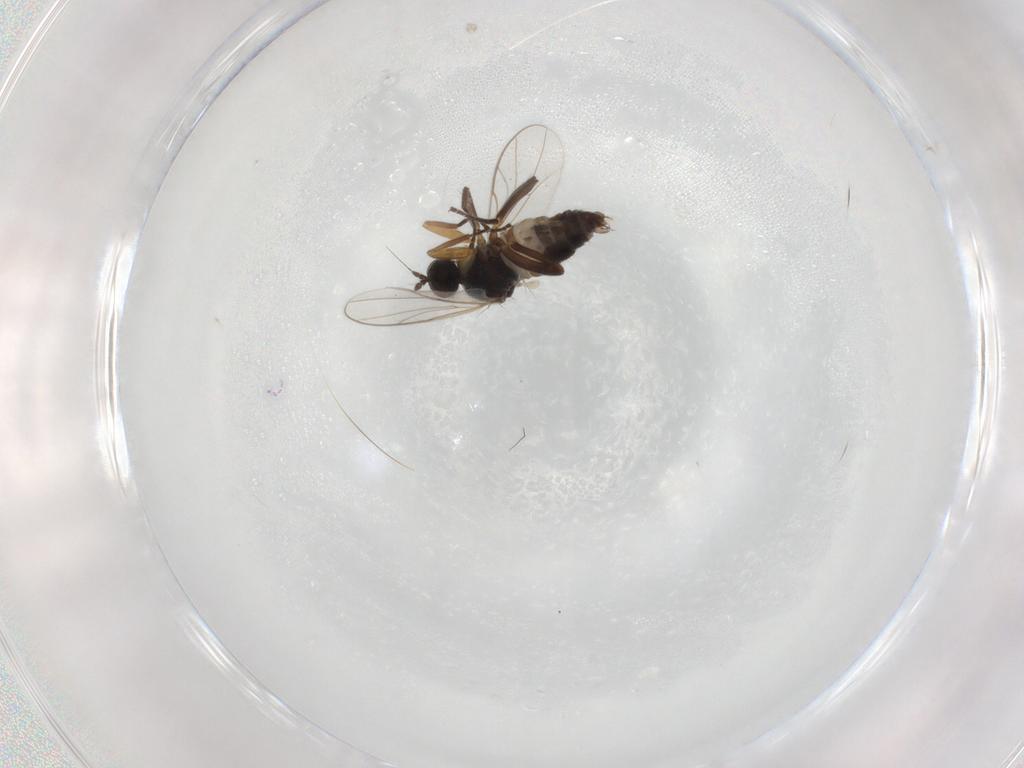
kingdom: Animalia
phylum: Arthropoda
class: Insecta
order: Diptera
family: Hybotidae
